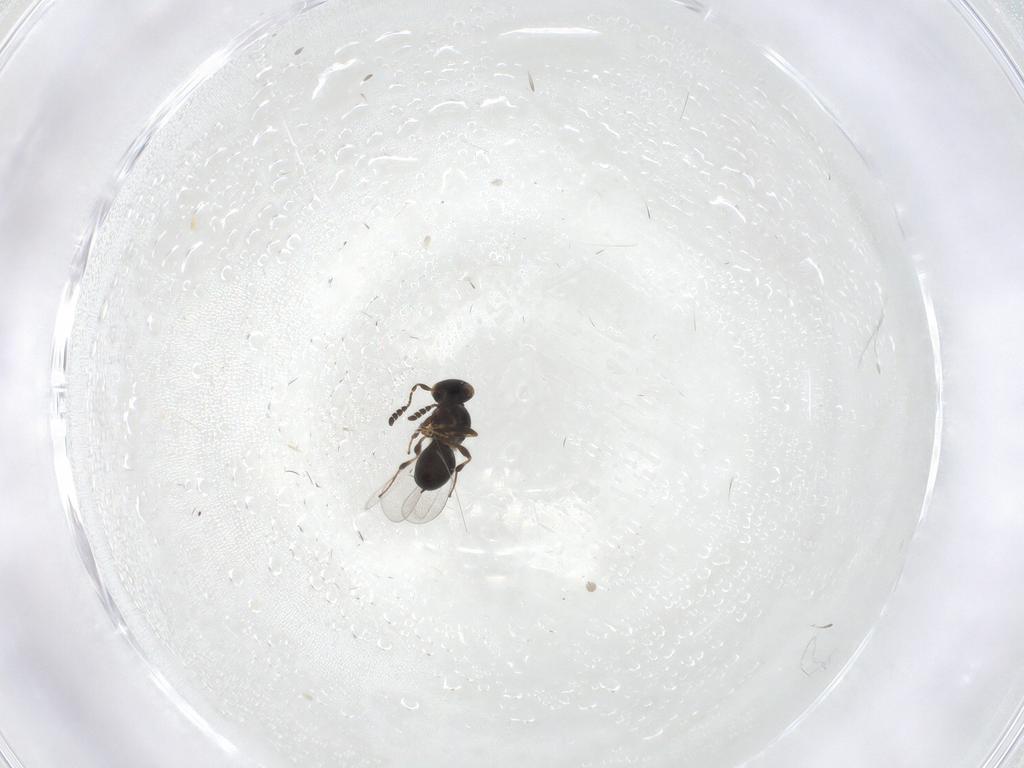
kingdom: Animalia
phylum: Arthropoda
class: Insecta
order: Hymenoptera
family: Platygastridae
